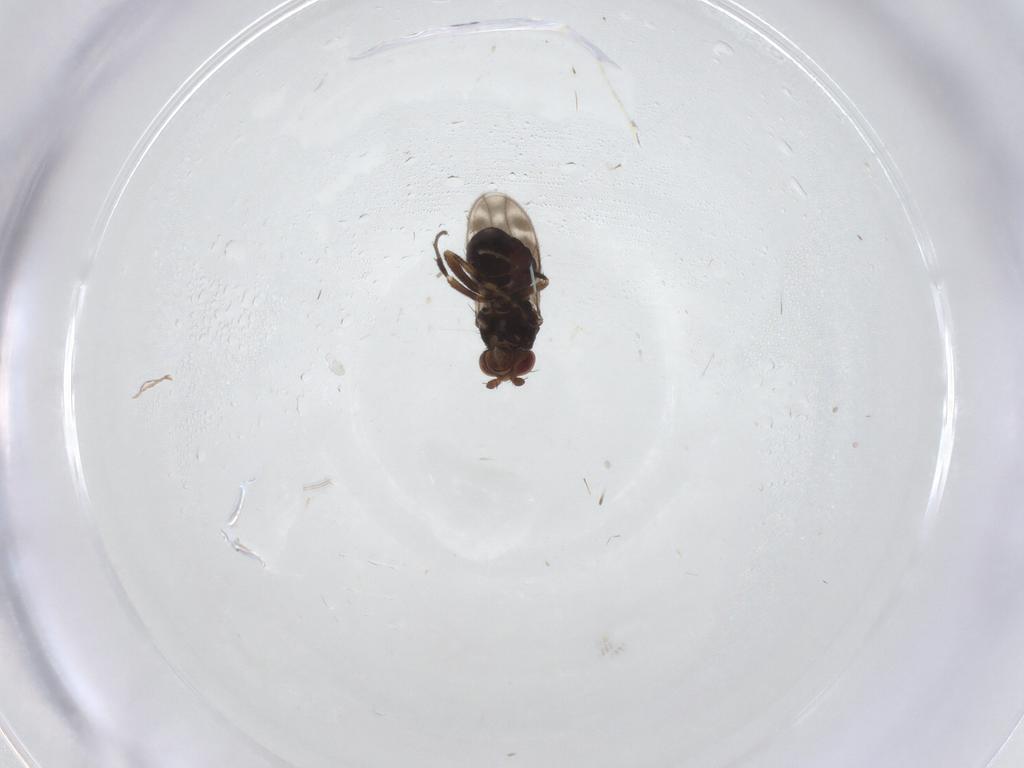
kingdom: Animalia
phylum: Arthropoda
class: Insecta
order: Diptera
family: Sphaeroceridae
